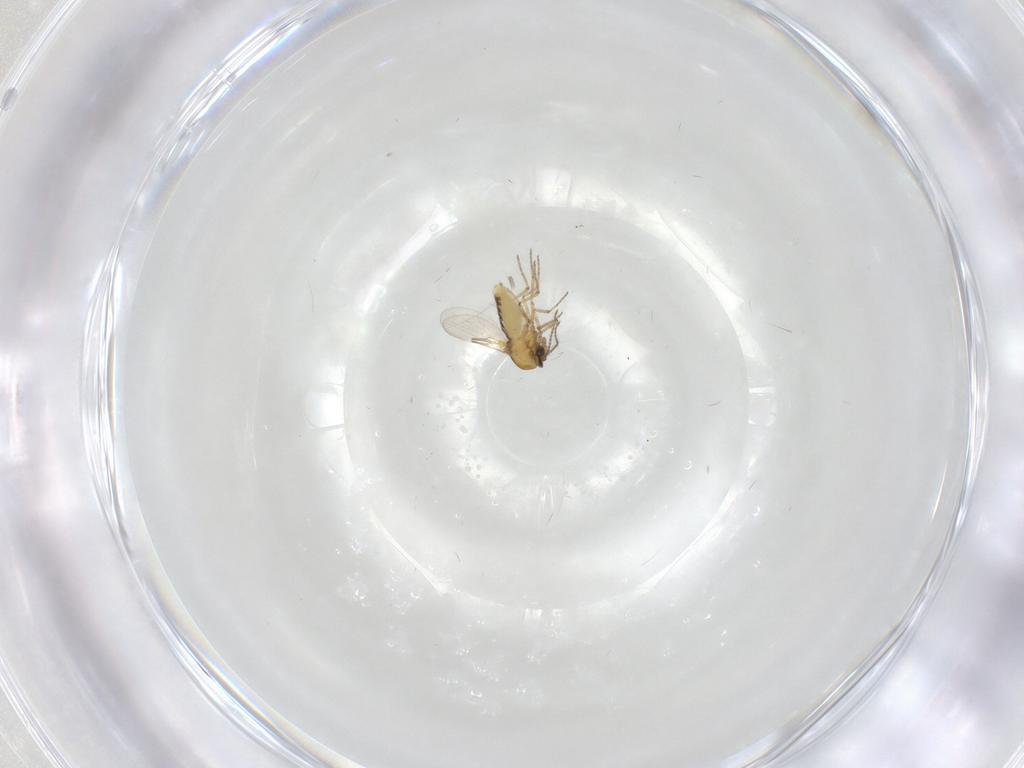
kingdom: Animalia
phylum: Arthropoda
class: Insecta
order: Diptera
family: Ceratopogonidae
